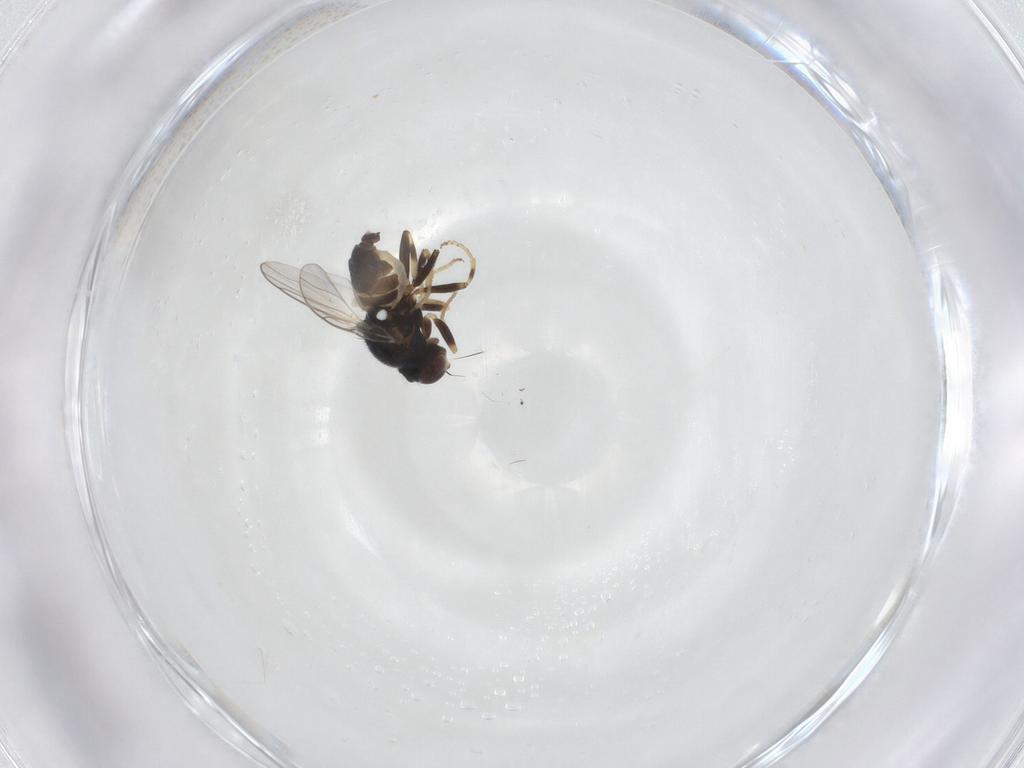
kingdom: Animalia
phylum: Arthropoda
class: Insecta
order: Diptera
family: Chloropidae
